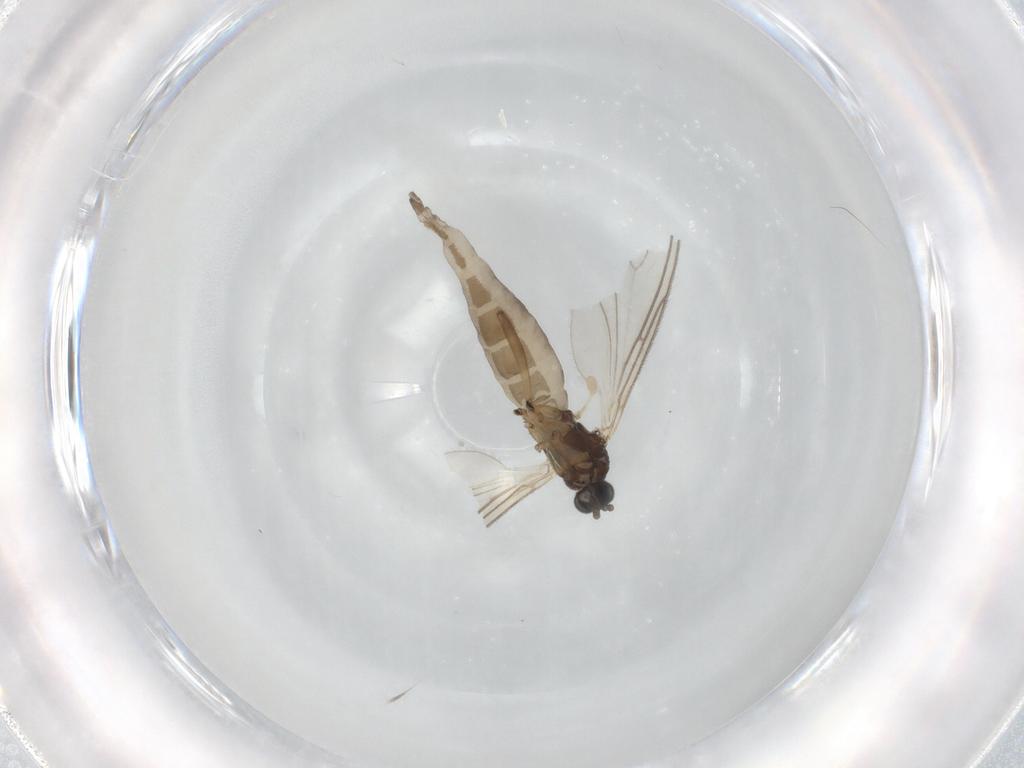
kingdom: Animalia
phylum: Arthropoda
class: Insecta
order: Diptera
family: Sciaridae
